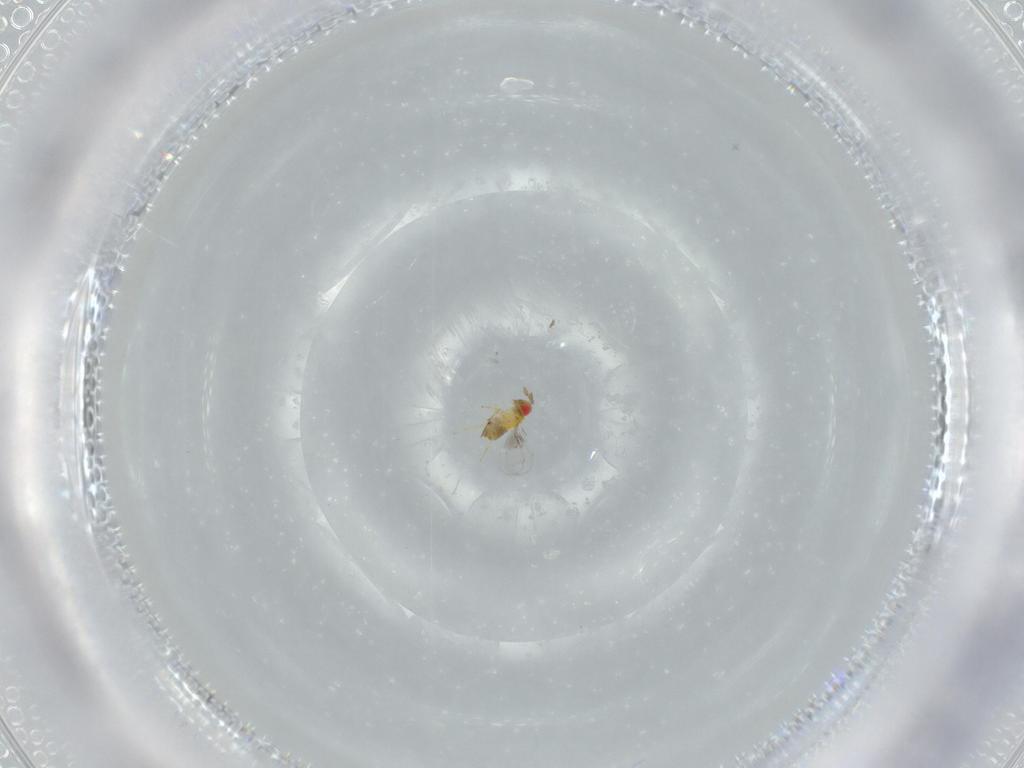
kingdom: Animalia
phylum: Arthropoda
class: Insecta
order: Hymenoptera
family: Trichogrammatidae
